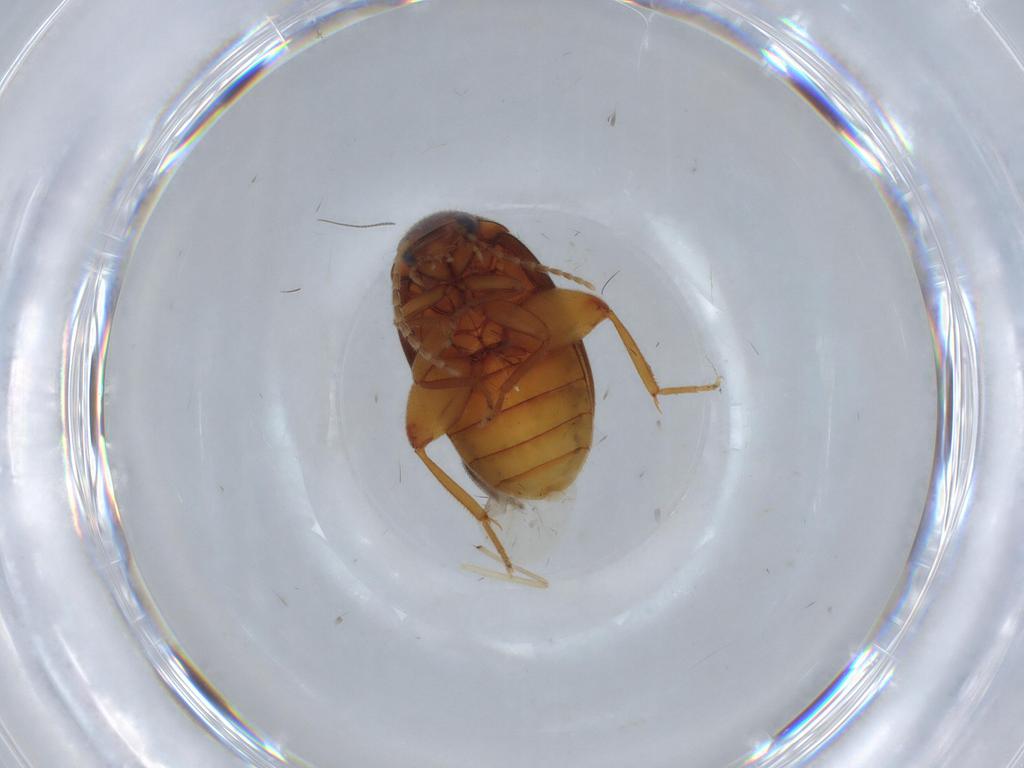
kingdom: Animalia
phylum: Arthropoda
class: Insecta
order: Coleoptera
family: Scirtidae
